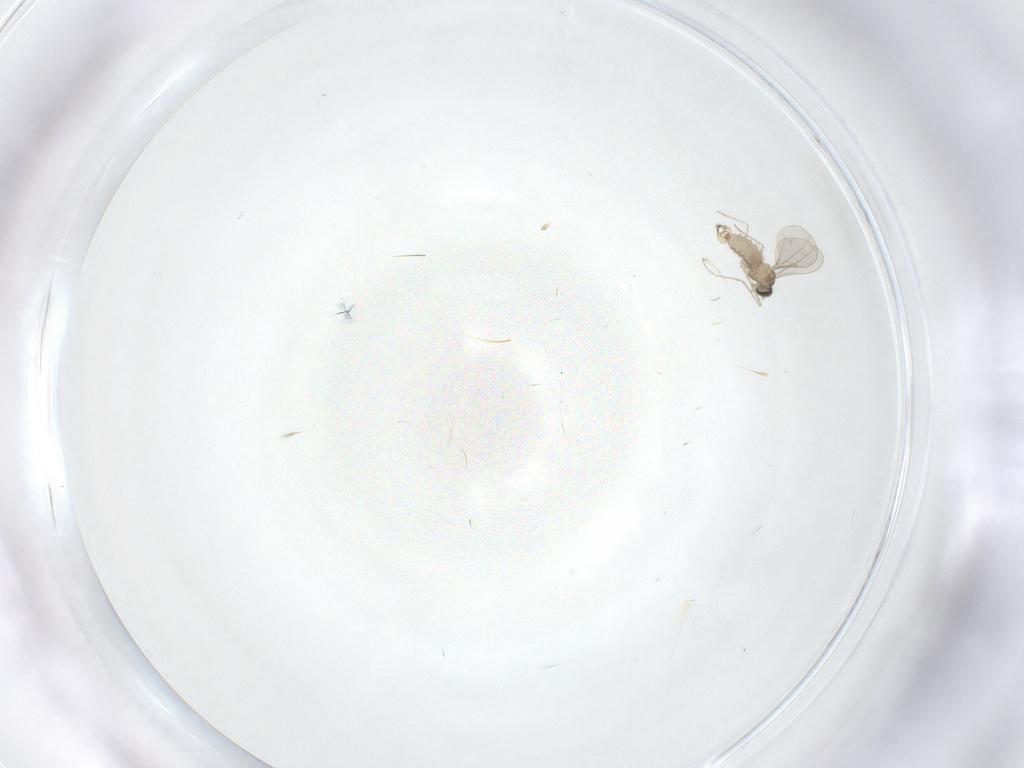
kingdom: Animalia
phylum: Arthropoda
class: Insecta
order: Diptera
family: Cecidomyiidae
